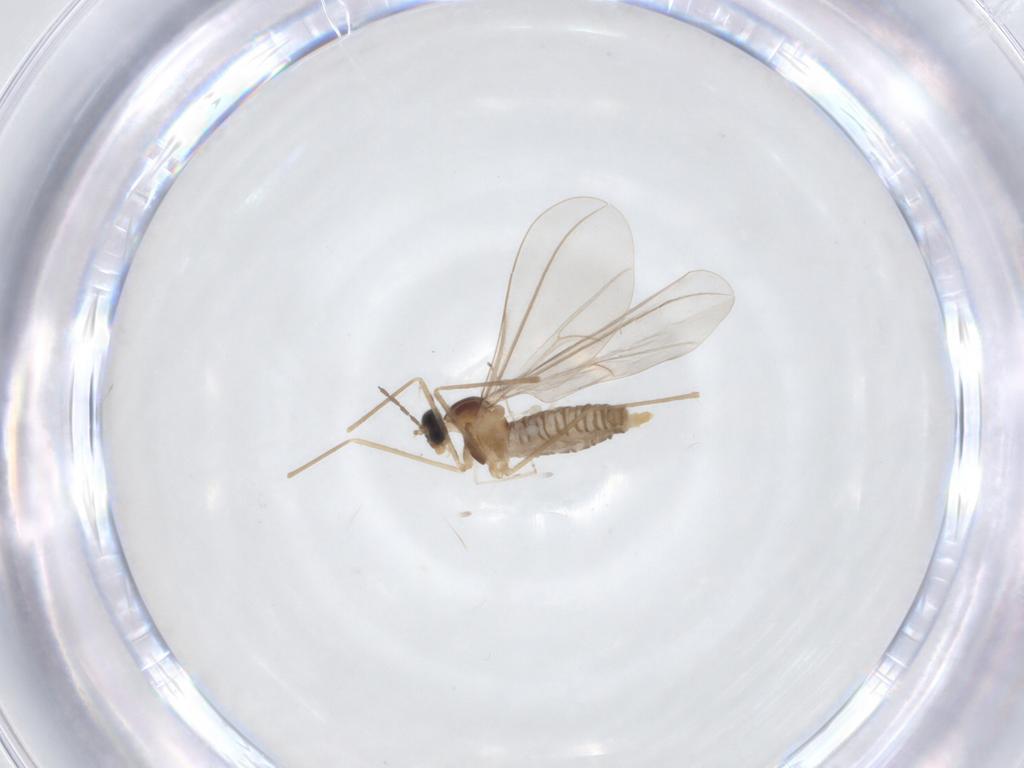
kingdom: Animalia
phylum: Arthropoda
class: Insecta
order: Diptera
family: Cecidomyiidae
